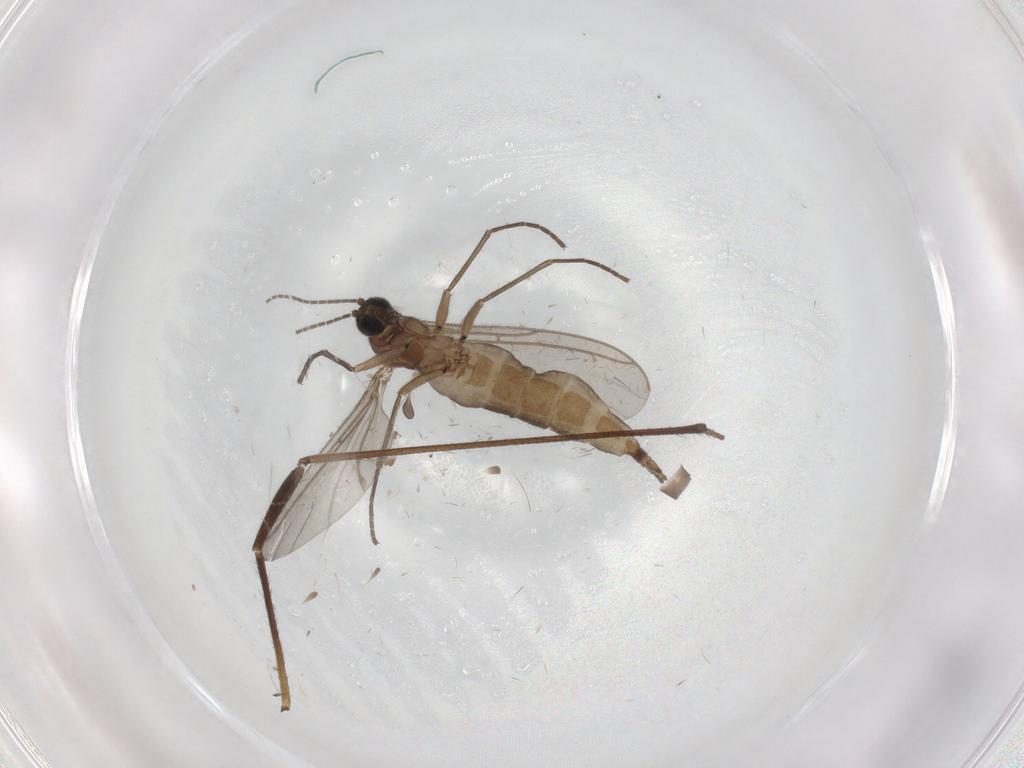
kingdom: Animalia
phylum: Arthropoda
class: Insecta
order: Diptera
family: Sciaridae
